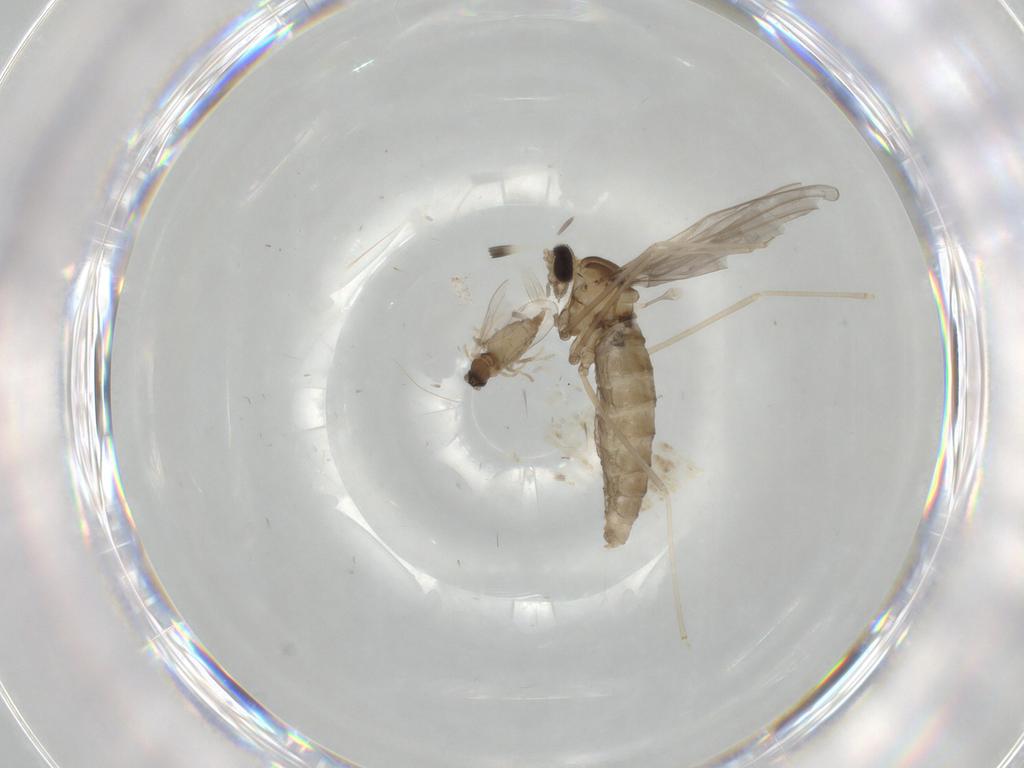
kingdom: Animalia
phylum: Arthropoda
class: Insecta
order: Diptera
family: Cecidomyiidae
